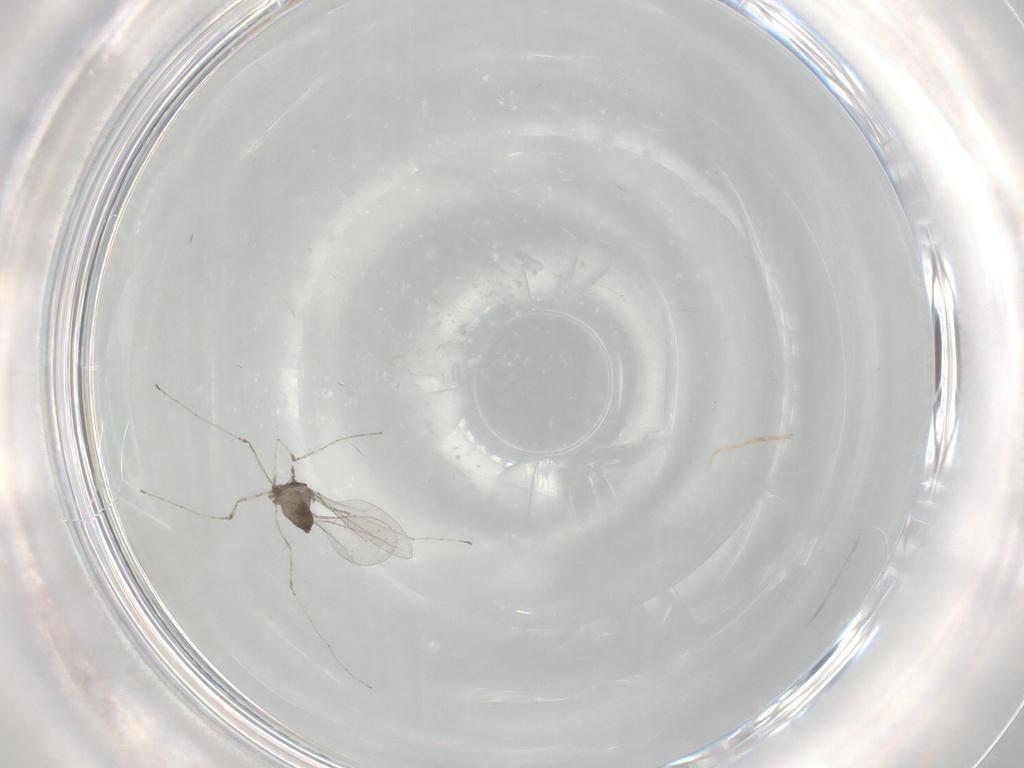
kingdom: Animalia
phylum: Arthropoda
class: Insecta
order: Diptera
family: Cecidomyiidae
